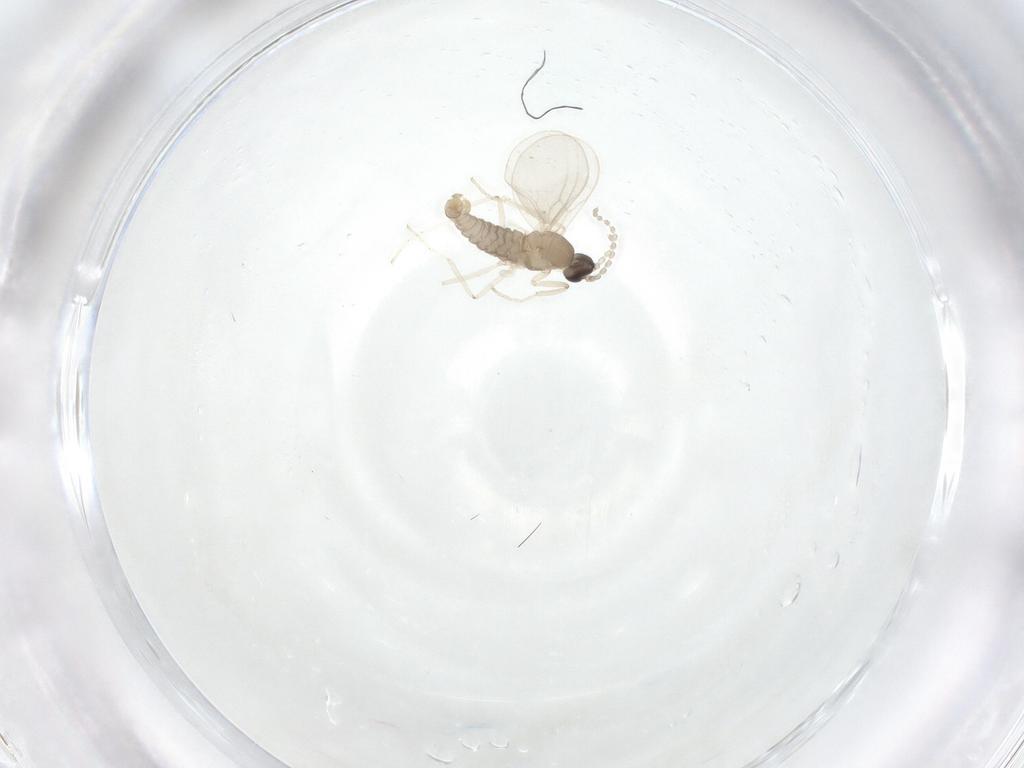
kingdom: Animalia
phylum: Arthropoda
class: Insecta
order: Diptera
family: Cecidomyiidae
